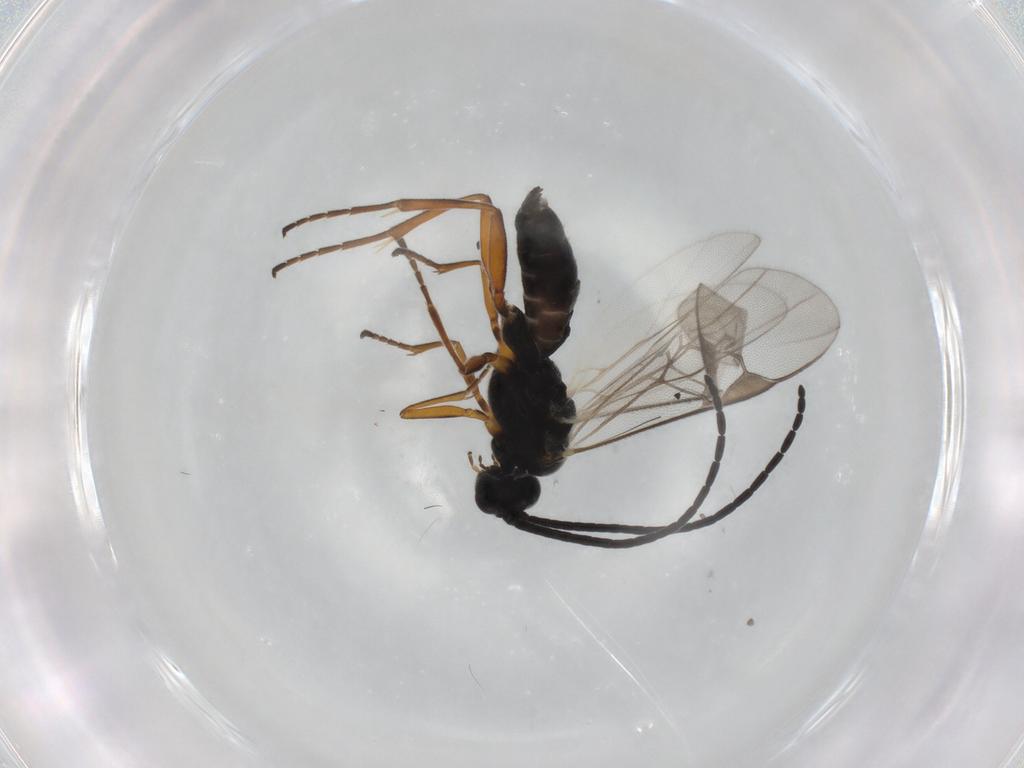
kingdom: Animalia
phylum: Arthropoda
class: Insecta
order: Hymenoptera
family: Braconidae
